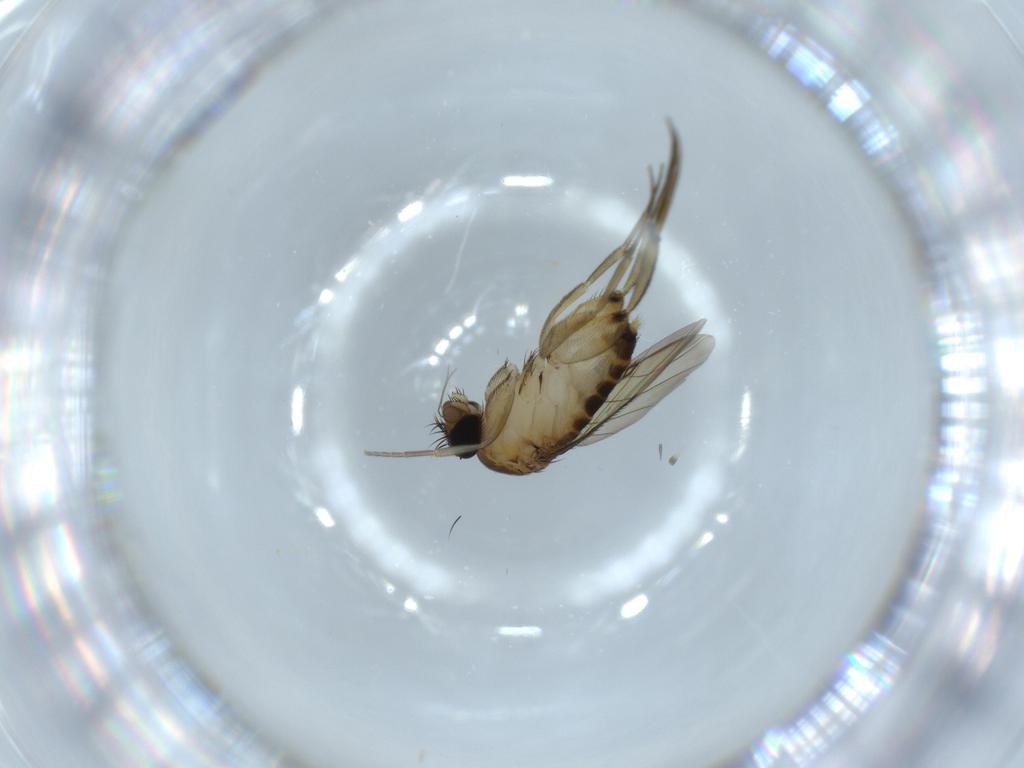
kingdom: Animalia
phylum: Arthropoda
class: Insecta
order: Diptera
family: Phoridae
